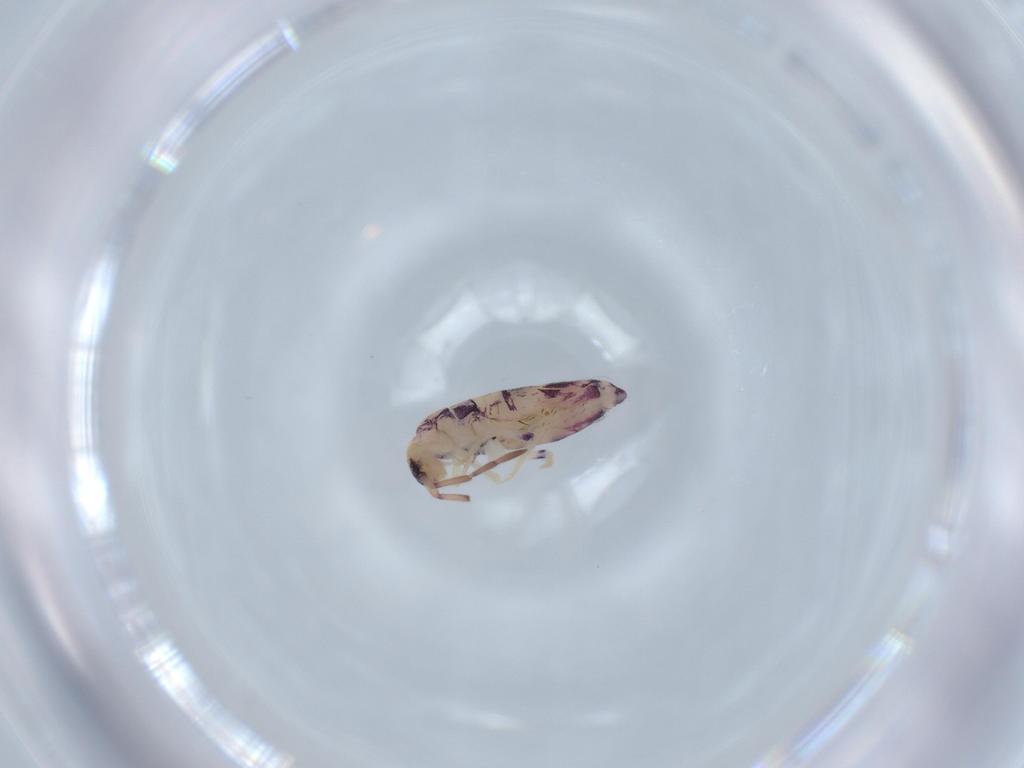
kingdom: Animalia
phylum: Arthropoda
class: Collembola
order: Entomobryomorpha
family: Entomobryidae
